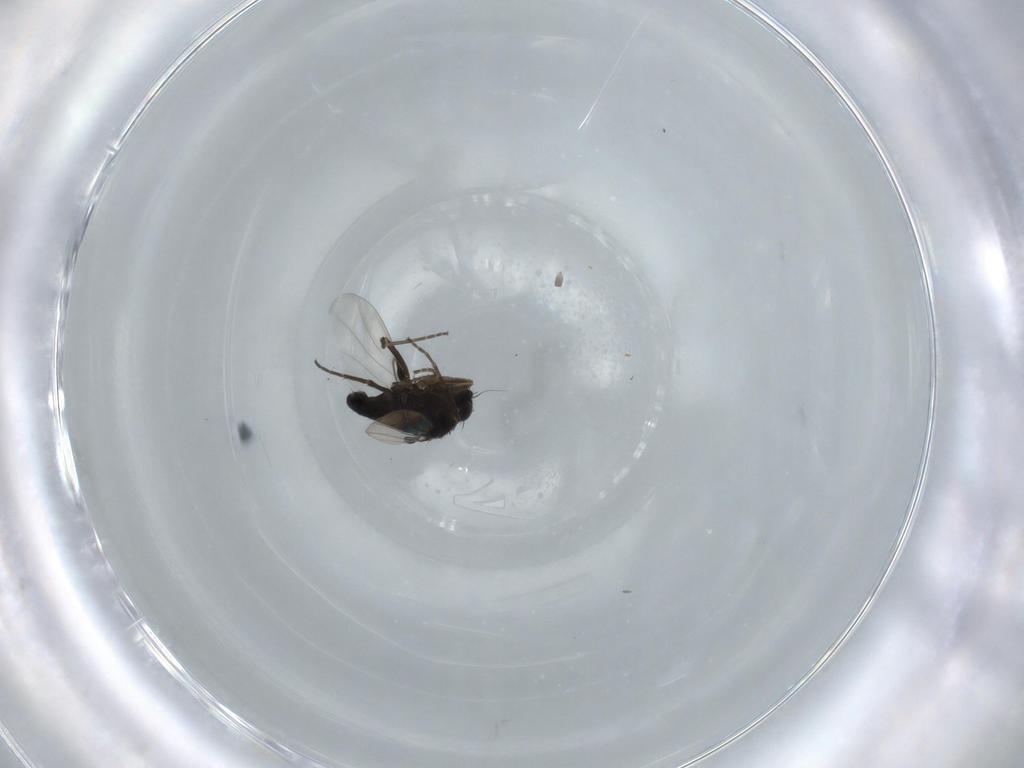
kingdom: Animalia
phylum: Arthropoda
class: Insecta
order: Diptera
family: Phoridae
